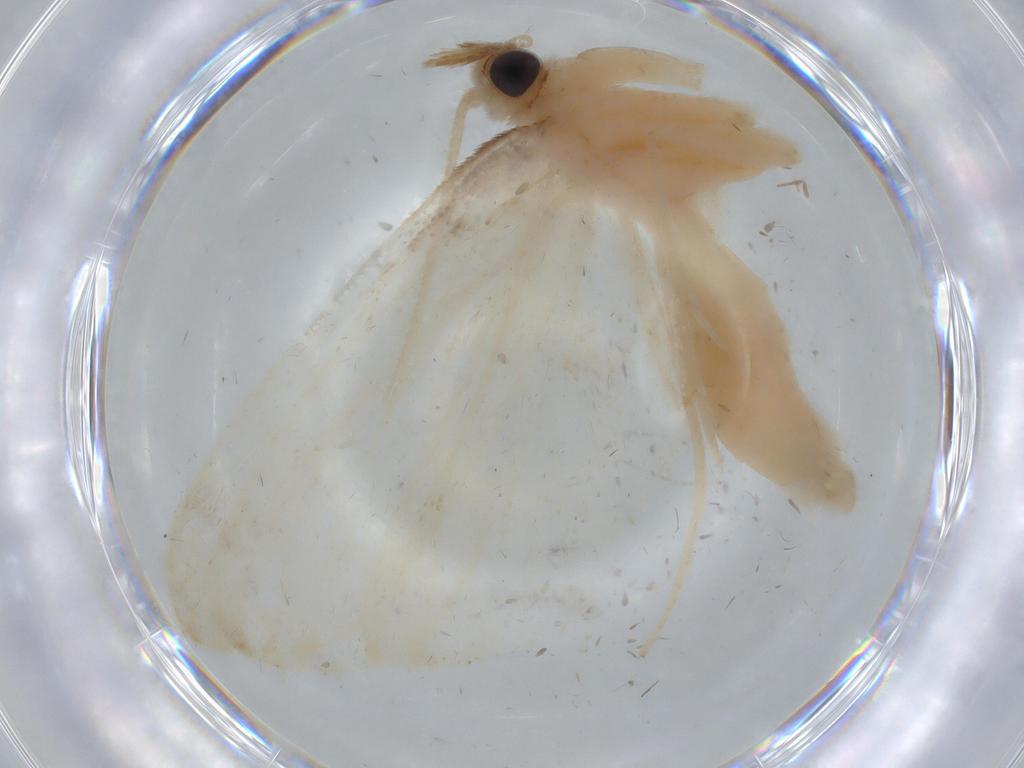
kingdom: Animalia
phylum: Arthropoda
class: Insecta
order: Lepidoptera
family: Crambidae
